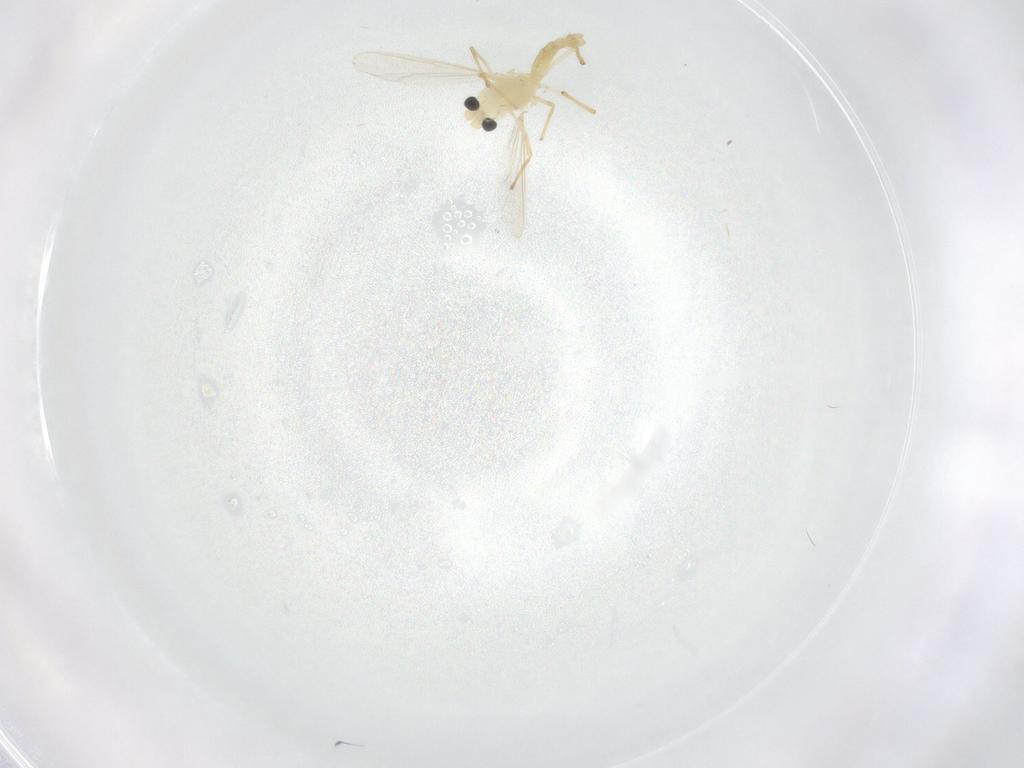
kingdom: Animalia
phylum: Arthropoda
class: Insecta
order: Diptera
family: Chironomidae
